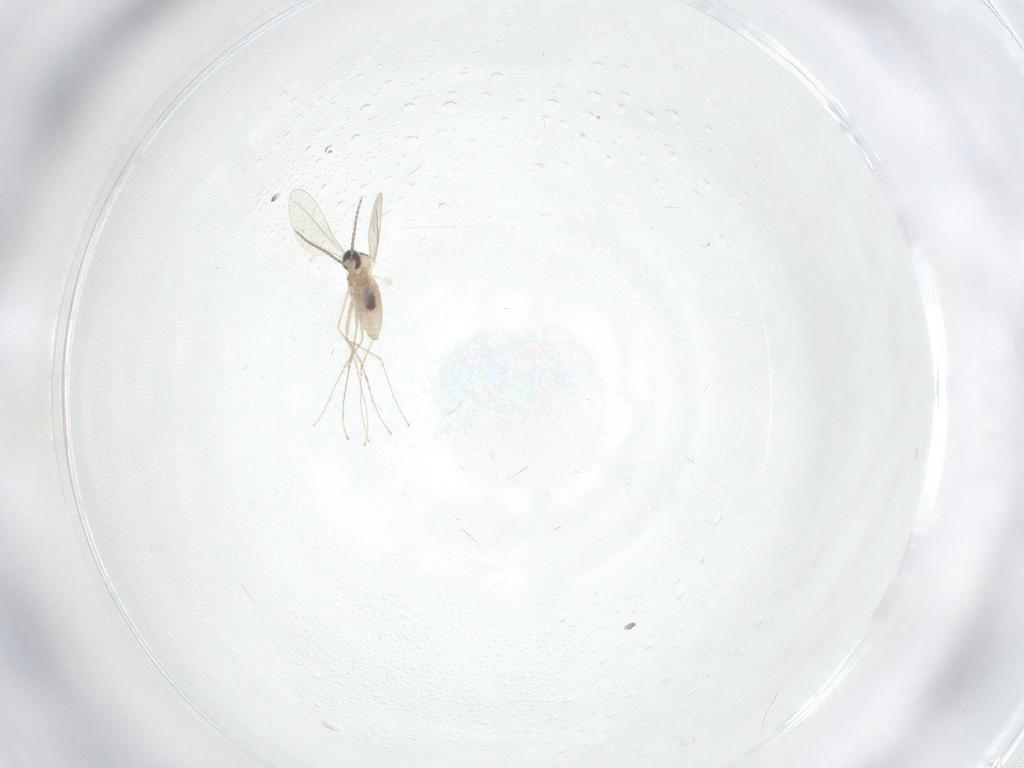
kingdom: Animalia
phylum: Arthropoda
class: Insecta
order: Diptera
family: Cecidomyiidae
